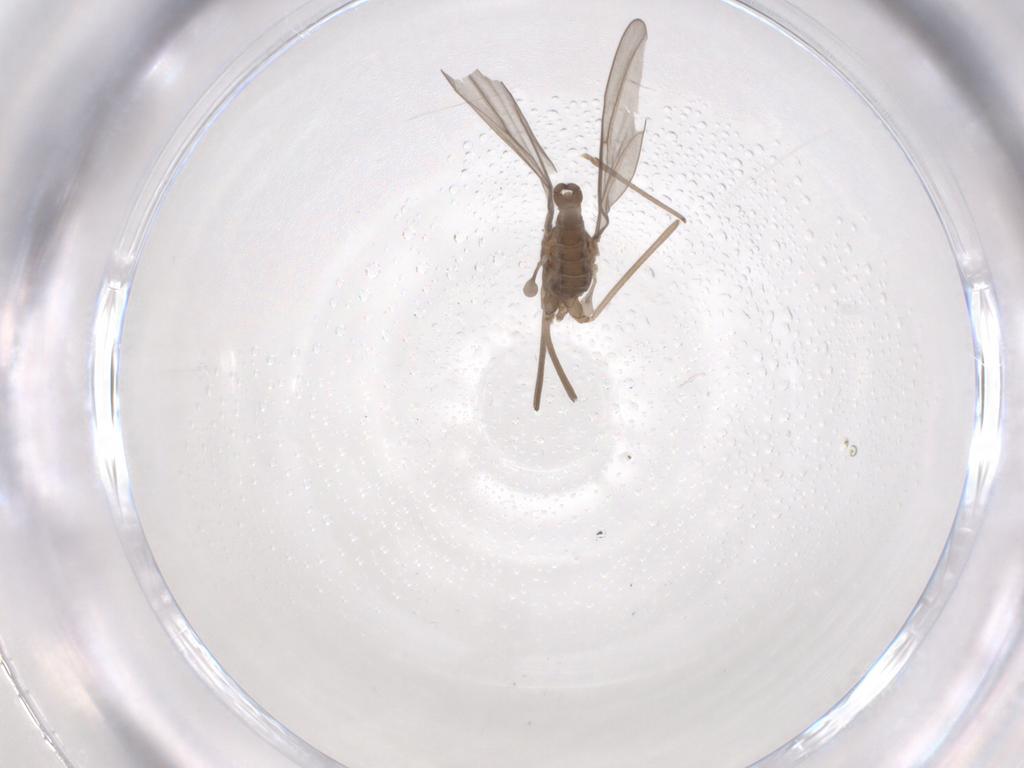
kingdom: Animalia
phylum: Arthropoda
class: Insecta
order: Diptera
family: Cecidomyiidae
